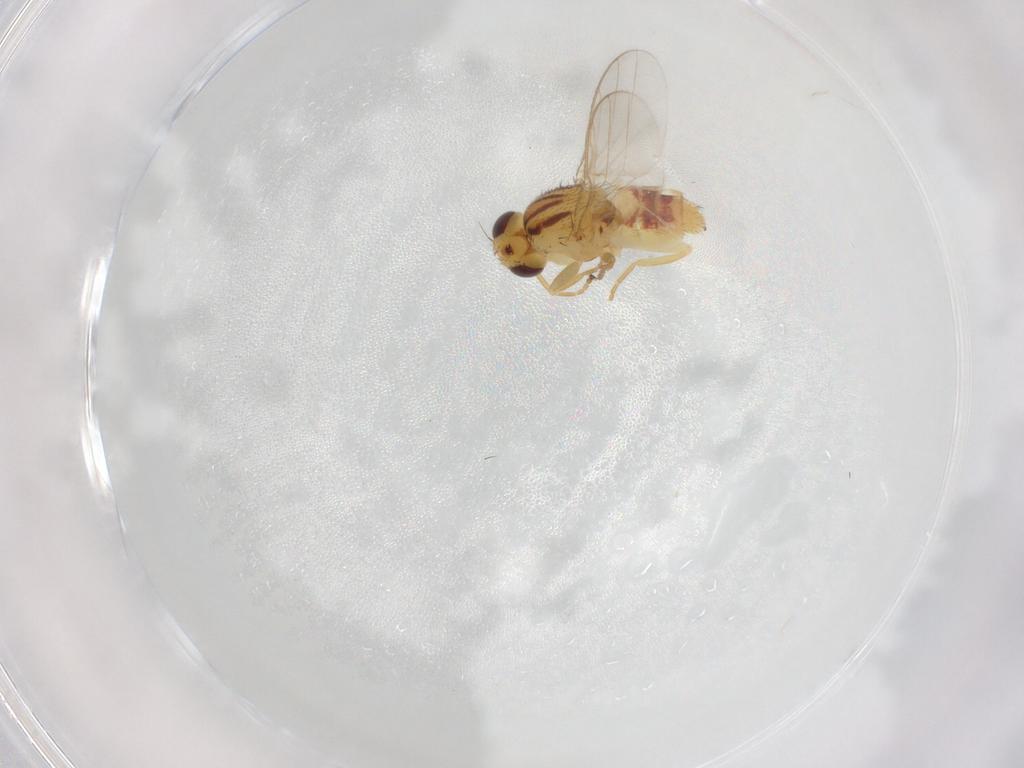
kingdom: Animalia
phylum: Arthropoda
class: Insecta
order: Diptera
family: Chloropidae
